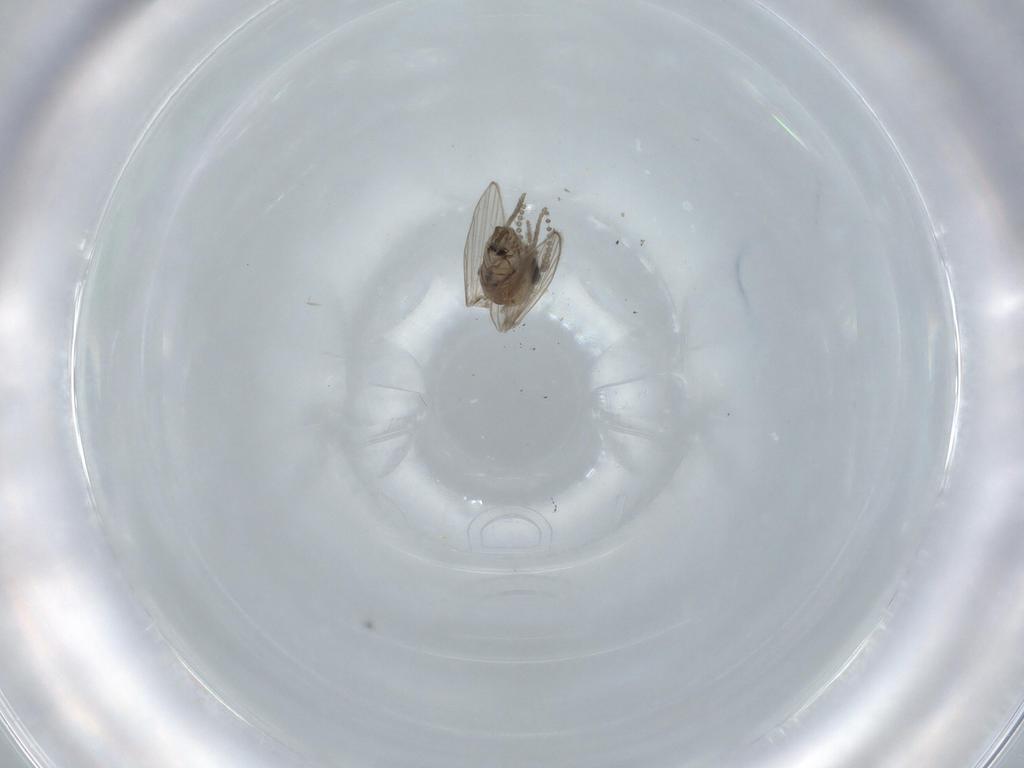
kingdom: Animalia
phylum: Arthropoda
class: Insecta
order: Diptera
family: Psychodidae
